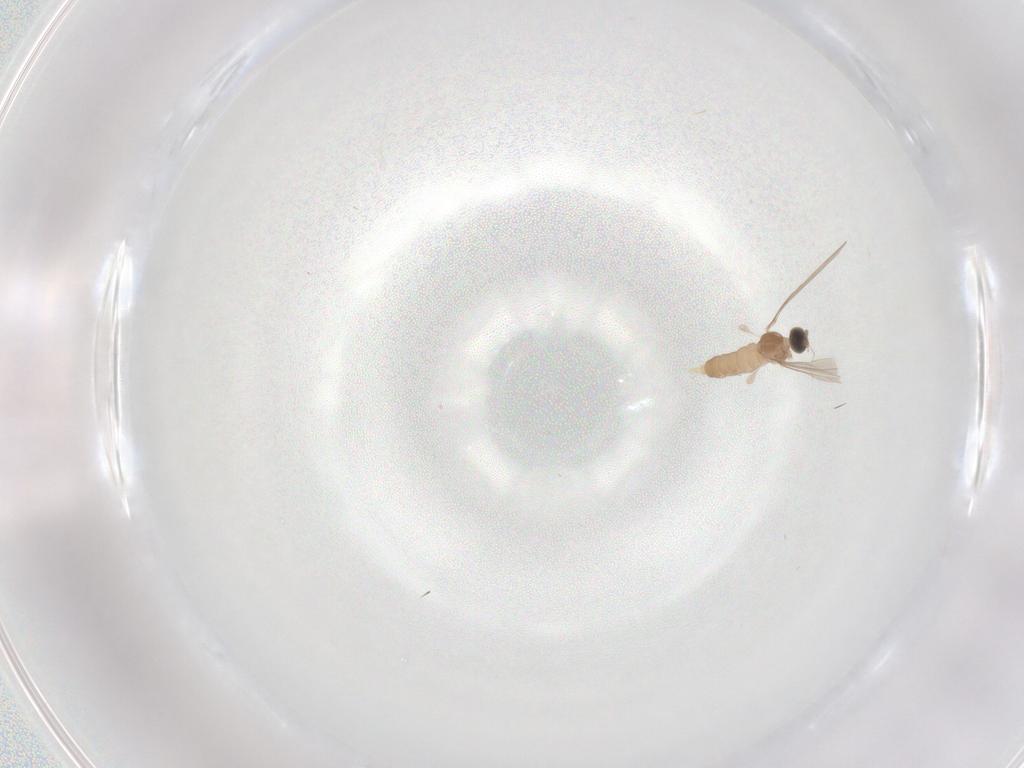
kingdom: Animalia
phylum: Arthropoda
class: Insecta
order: Diptera
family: Cecidomyiidae
